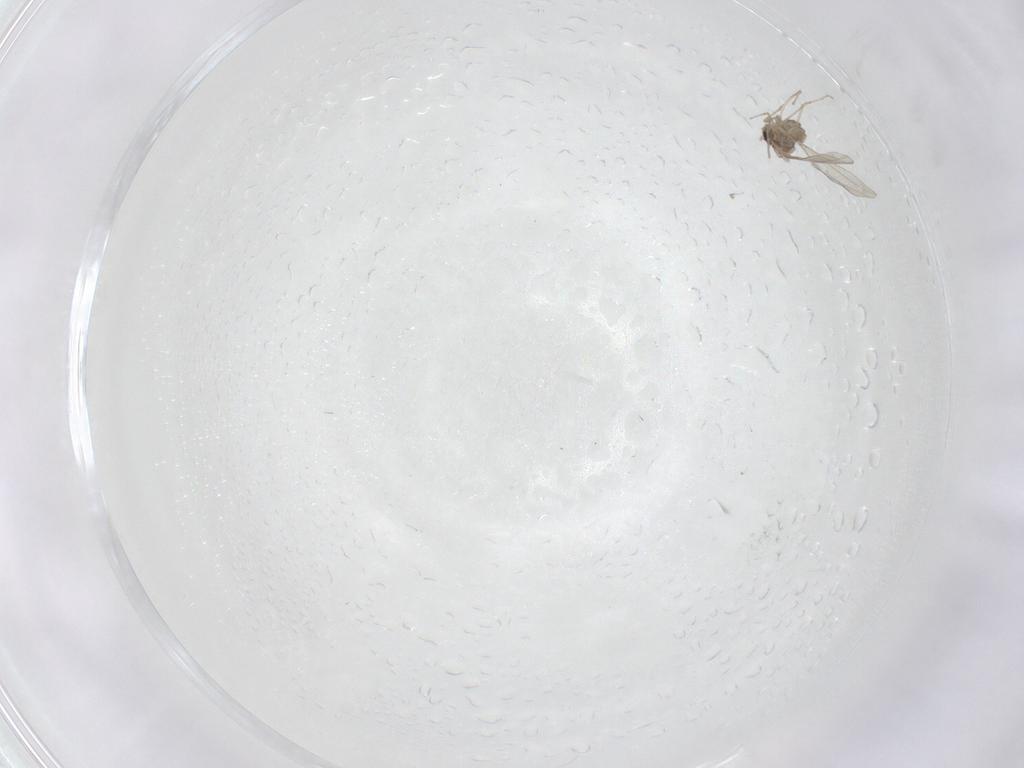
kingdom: Animalia
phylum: Arthropoda
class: Insecta
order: Diptera
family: Cecidomyiidae
